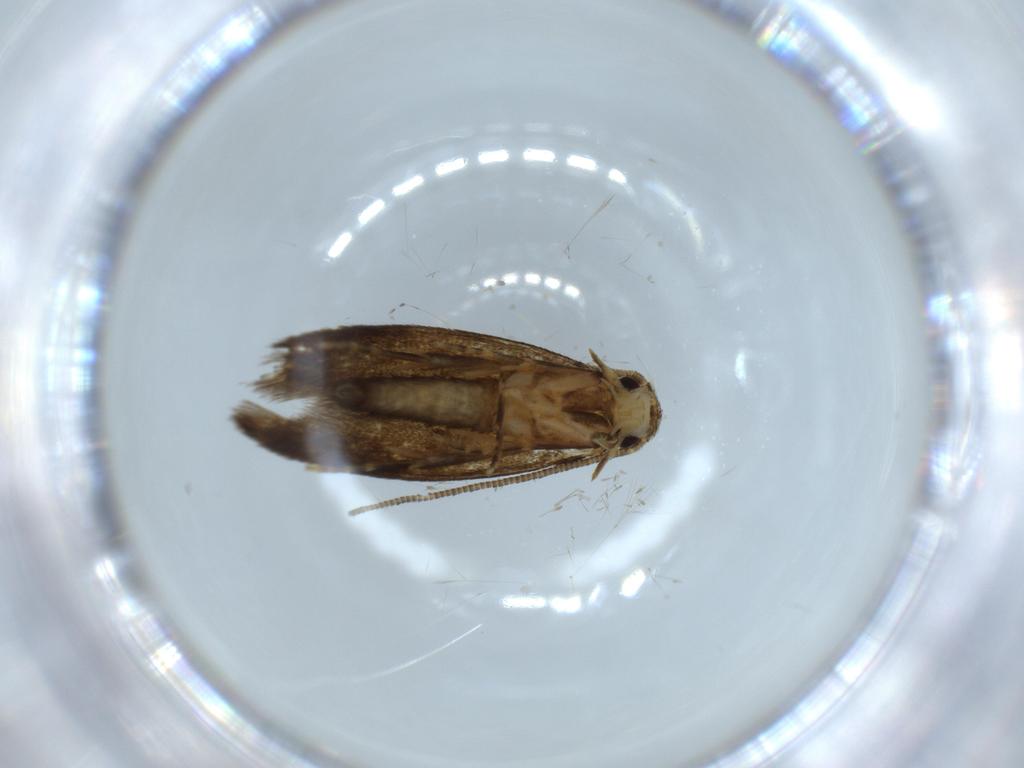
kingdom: Animalia
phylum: Arthropoda
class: Insecta
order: Lepidoptera
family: Tineidae
